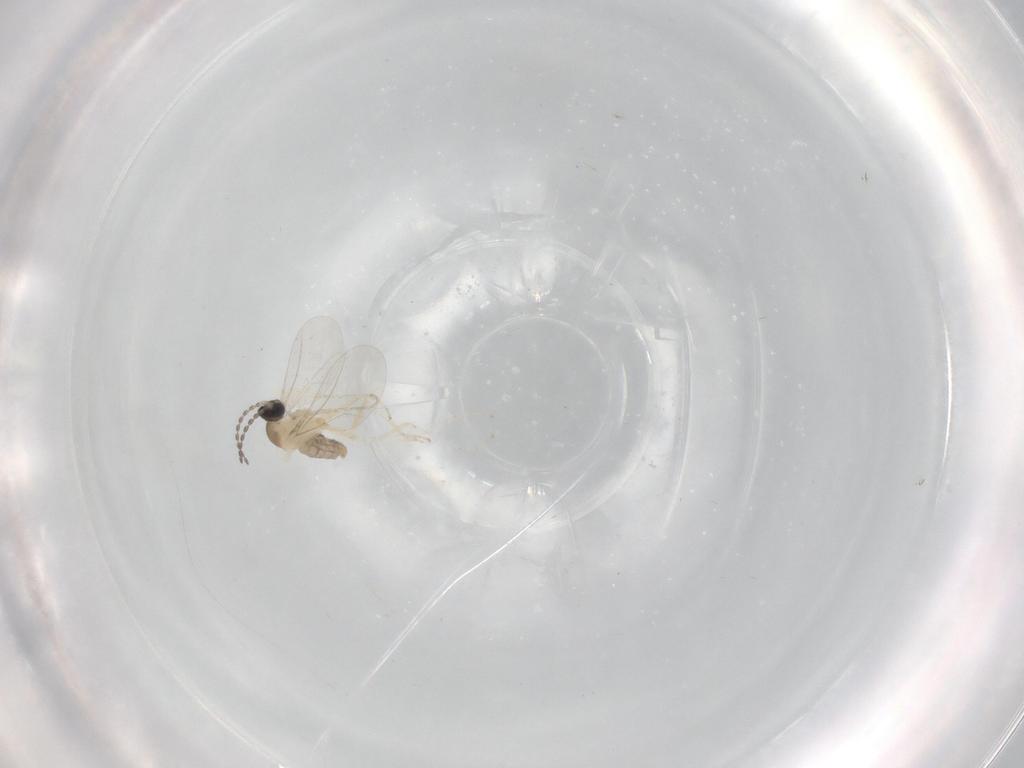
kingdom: Animalia
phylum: Arthropoda
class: Insecta
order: Diptera
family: Cecidomyiidae
